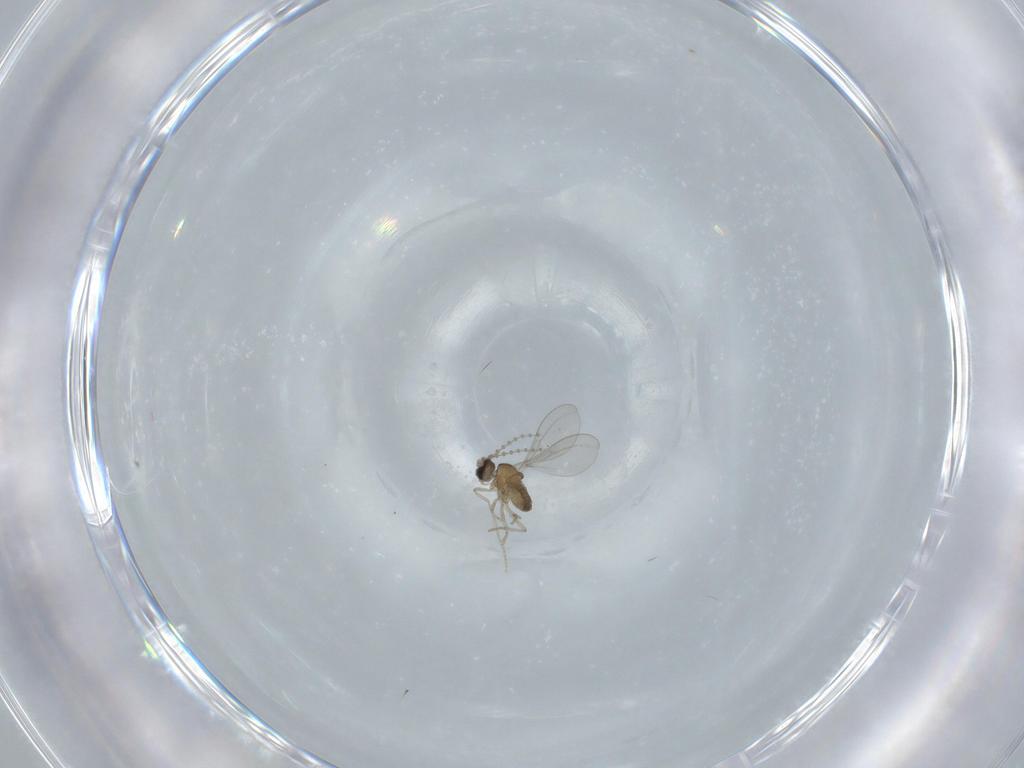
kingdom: Animalia
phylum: Arthropoda
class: Insecta
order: Diptera
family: Cecidomyiidae
